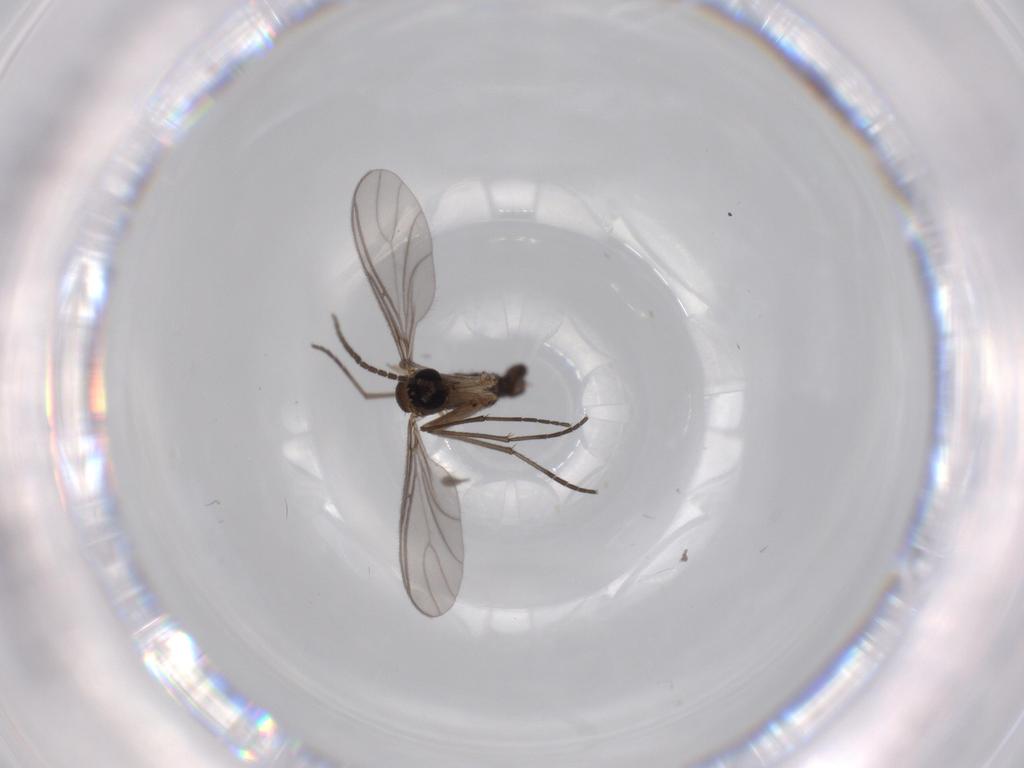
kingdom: Animalia
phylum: Arthropoda
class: Insecta
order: Diptera
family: Sciaridae
